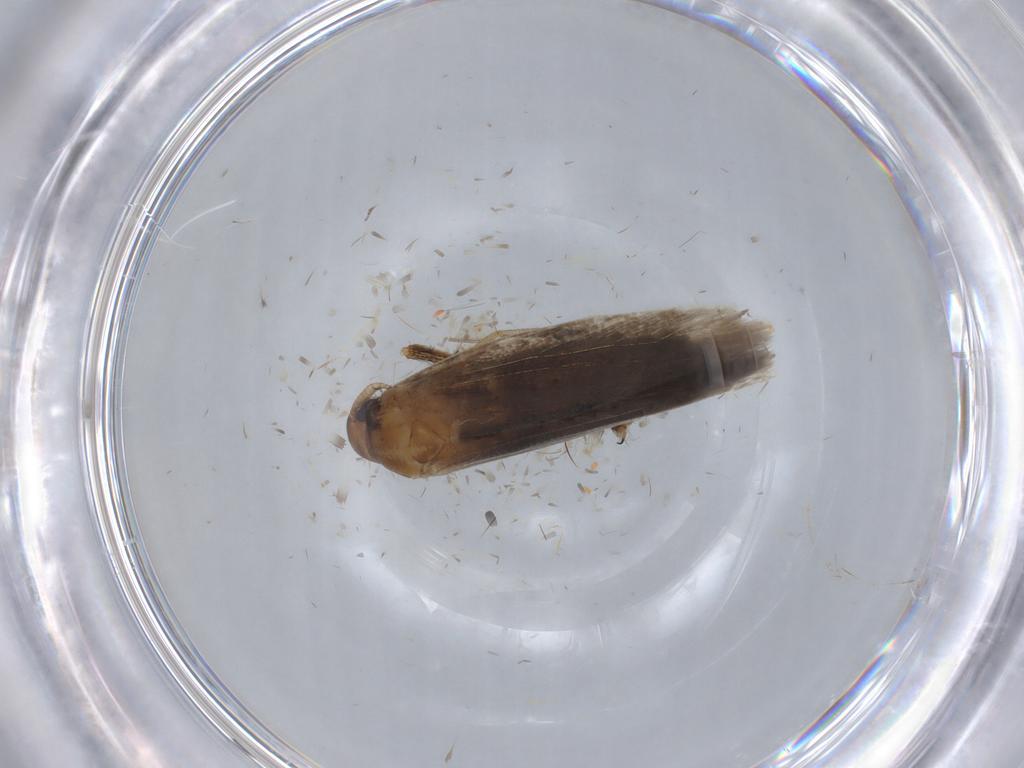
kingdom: Animalia
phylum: Arthropoda
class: Insecta
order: Lepidoptera
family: Cosmopterigidae
